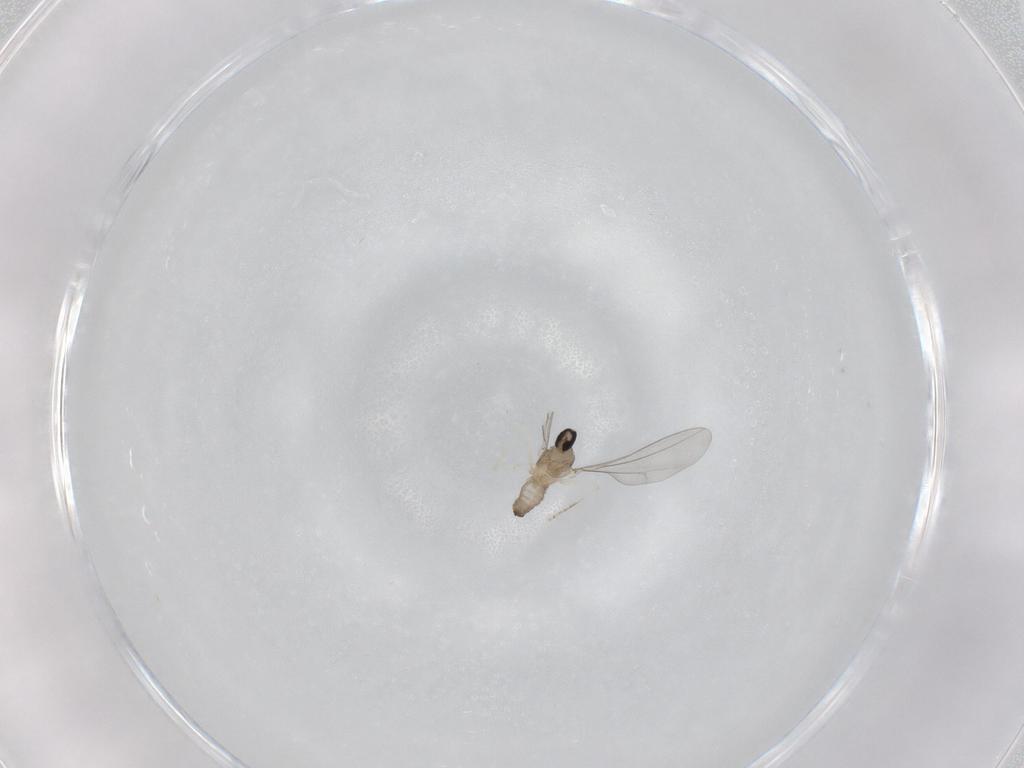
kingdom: Animalia
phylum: Arthropoda
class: Insecta
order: Diptera
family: Cecidomyiidae
